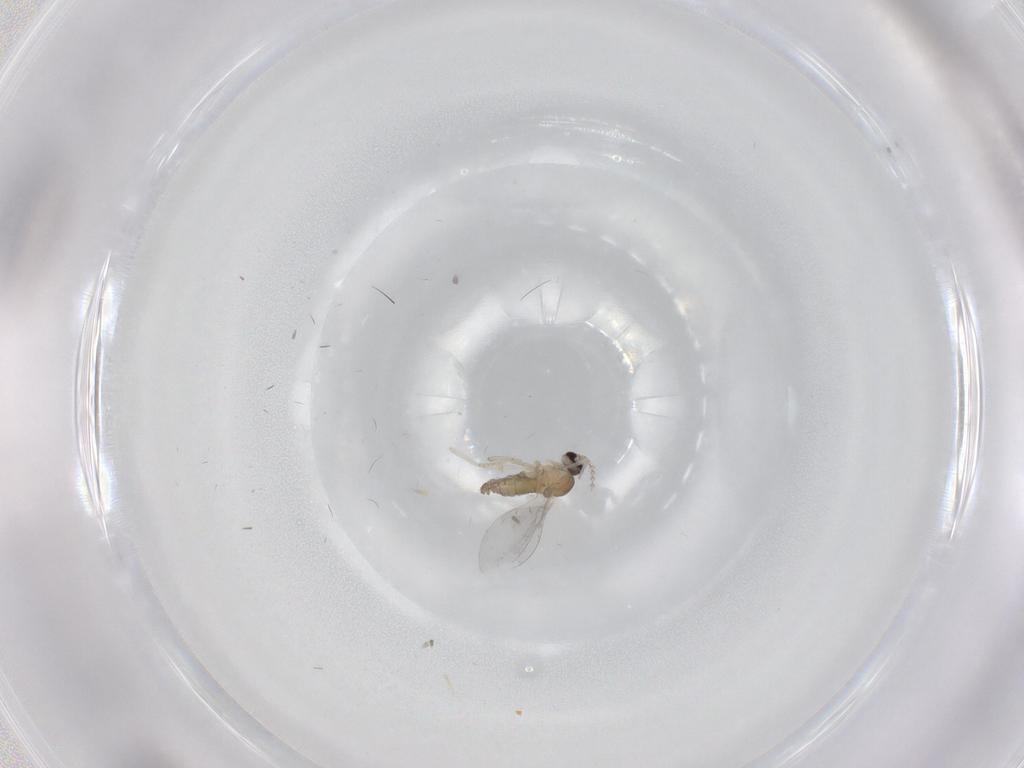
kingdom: Animalia
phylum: Arthropoda
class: Insecta
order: Diptera
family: Cecidomyiidae
